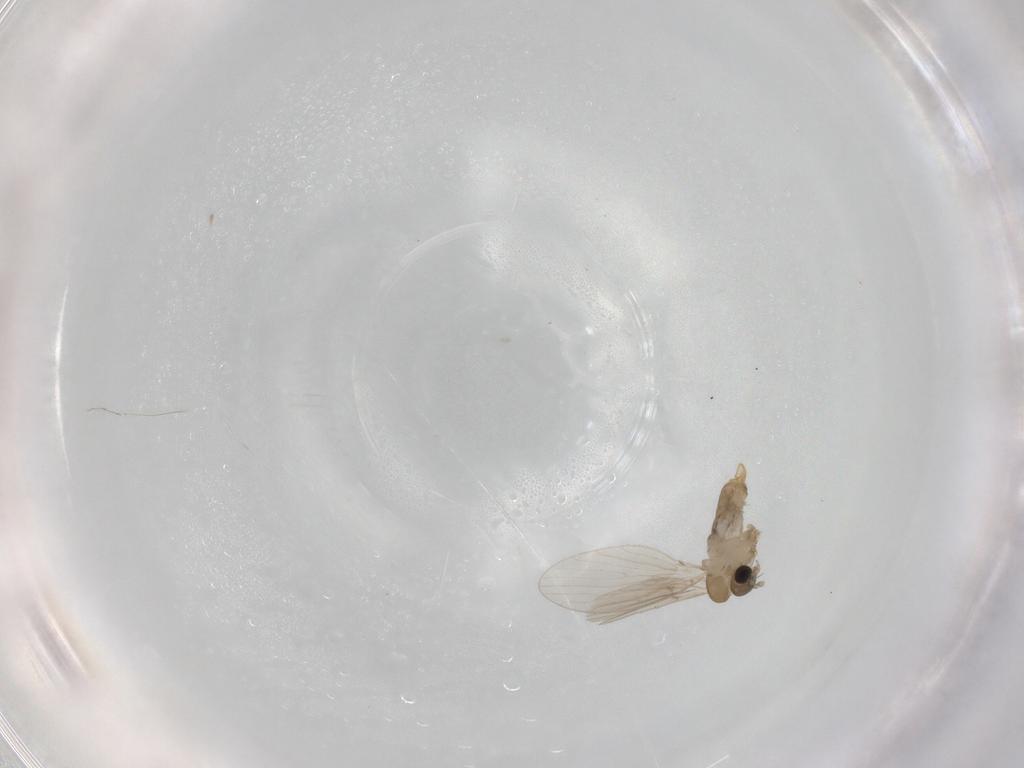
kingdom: Animalia
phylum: Arthropoda
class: Insecta
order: Diptera
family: Psychodidae
